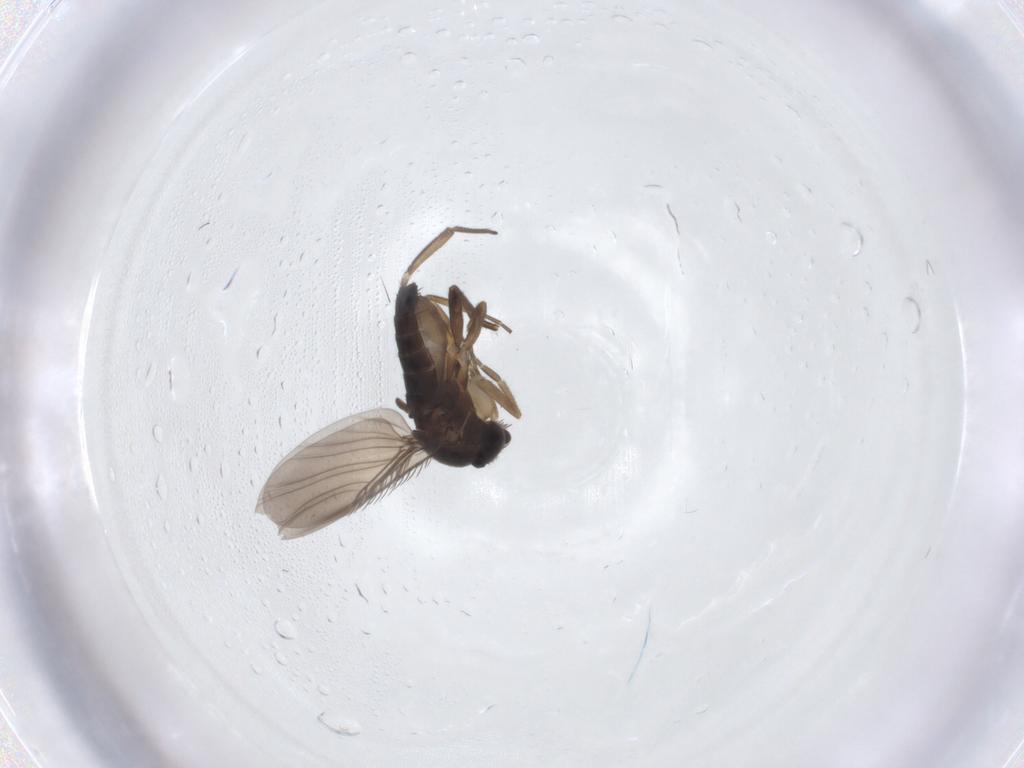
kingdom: Animalia
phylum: Arthropoda
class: Insecta
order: Diptera
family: Phoridae
